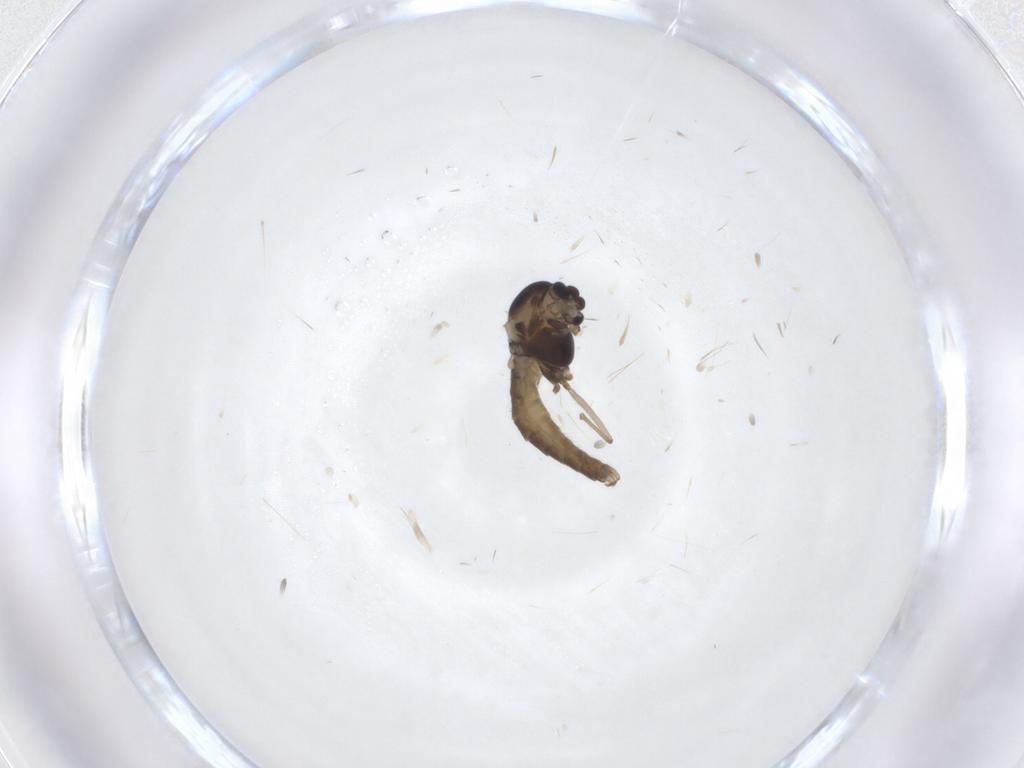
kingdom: Animalia
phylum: Arthropoda
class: Insecta
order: Diptera
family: Chironomidae
